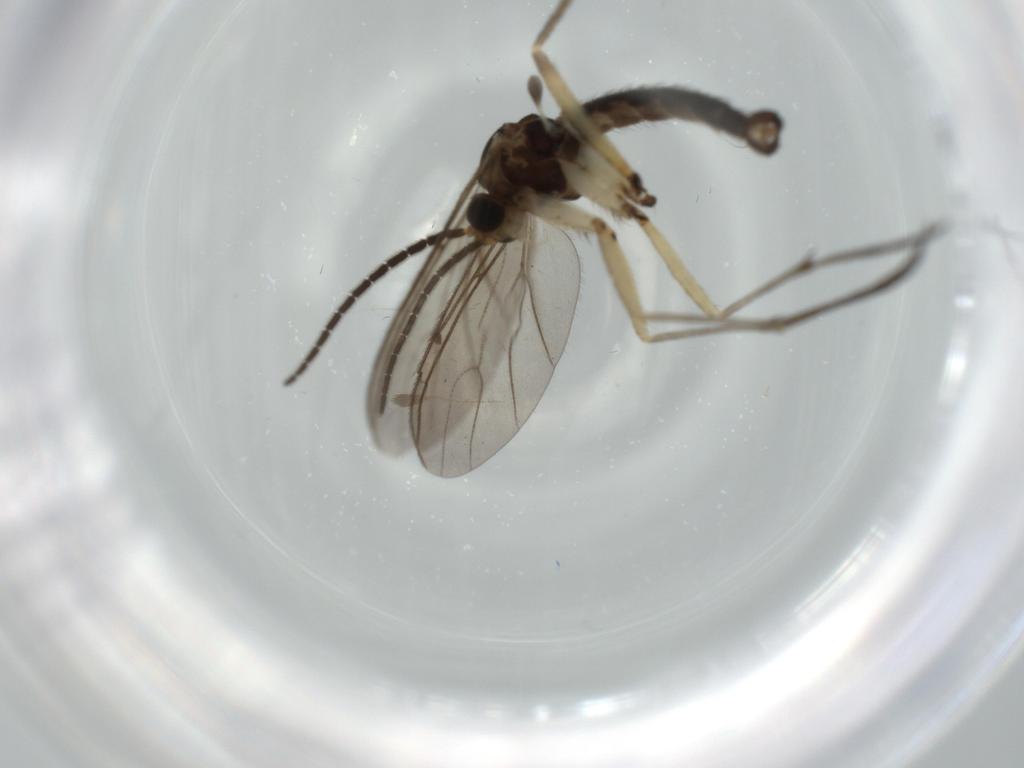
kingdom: Animalia
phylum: Arthropoda
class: Insecta
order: Diptera
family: Sciaridae
